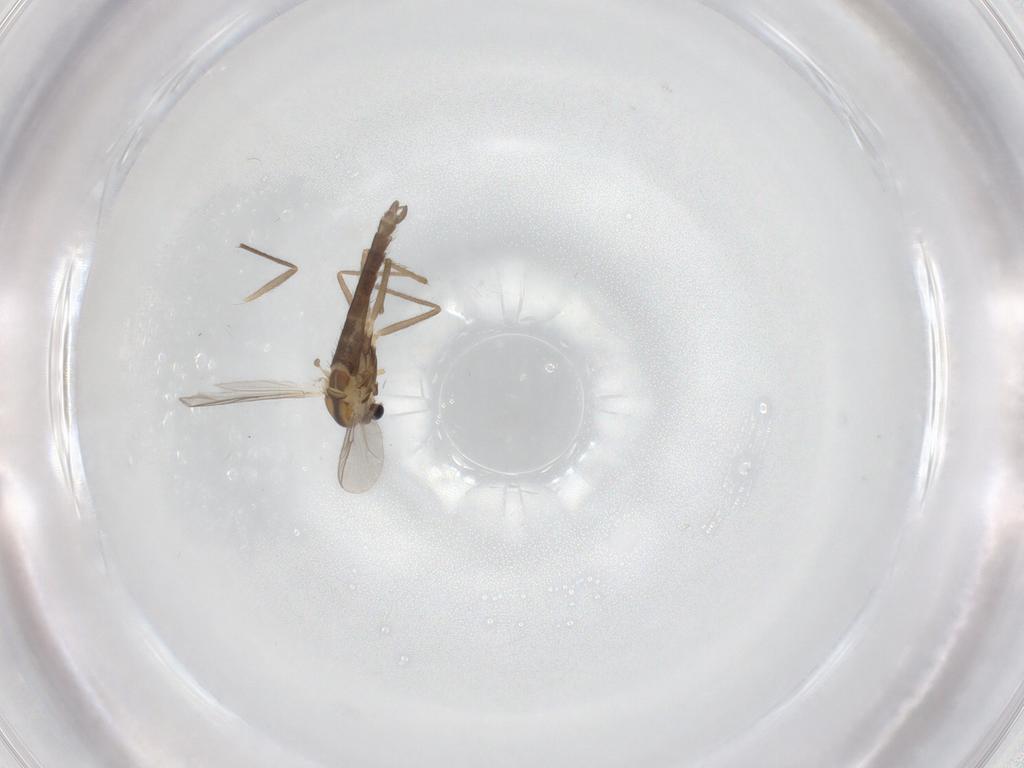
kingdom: Animalia
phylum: Arthropoda
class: Insecta
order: Diptera
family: Chironomidae
